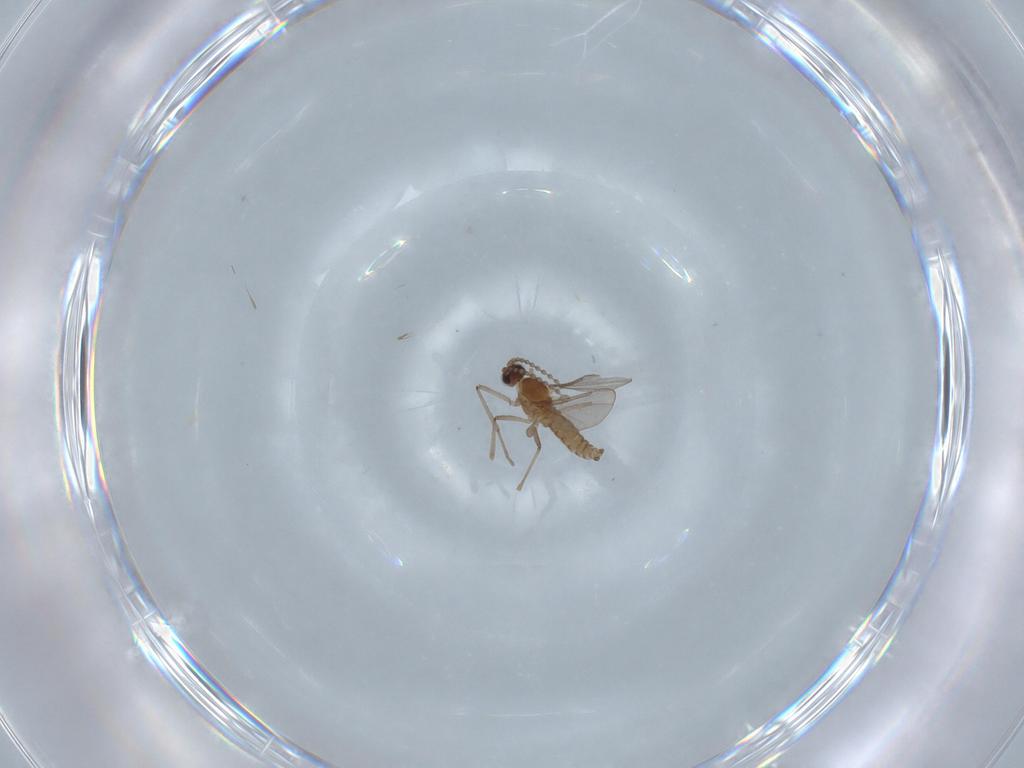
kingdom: Animalia
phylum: Arthropoda
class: Insecta
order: Diptera
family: Cecidomyiidae
